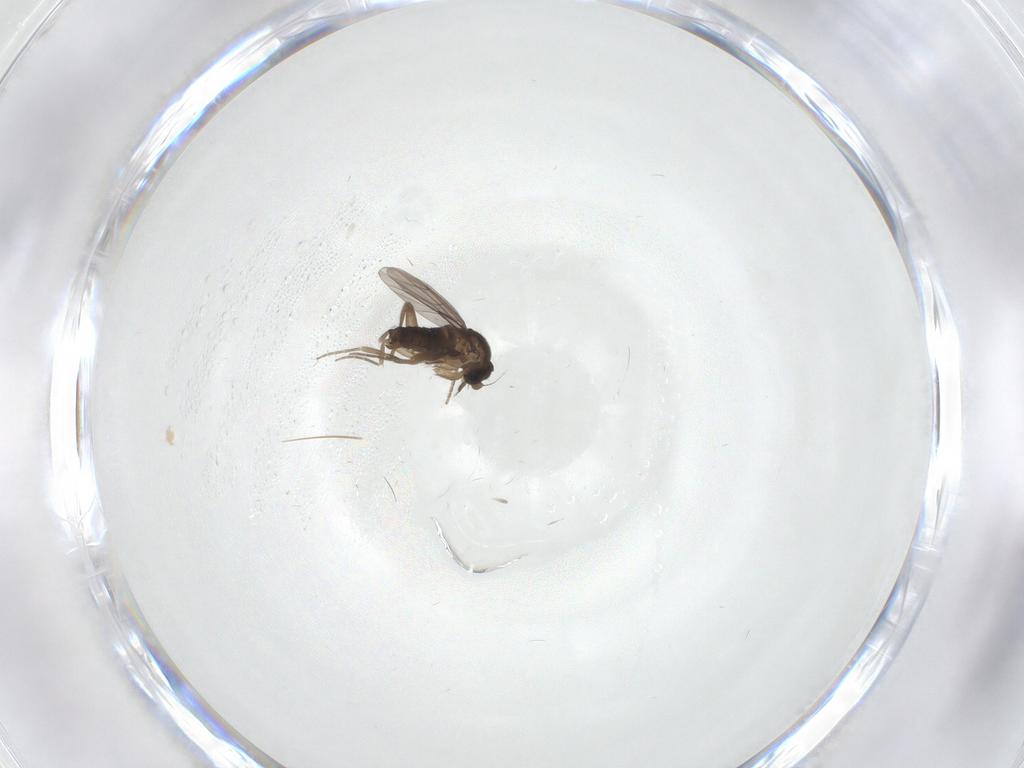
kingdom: Animalia
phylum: Arthropoda
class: Insecta
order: Diptera
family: Phoridae
